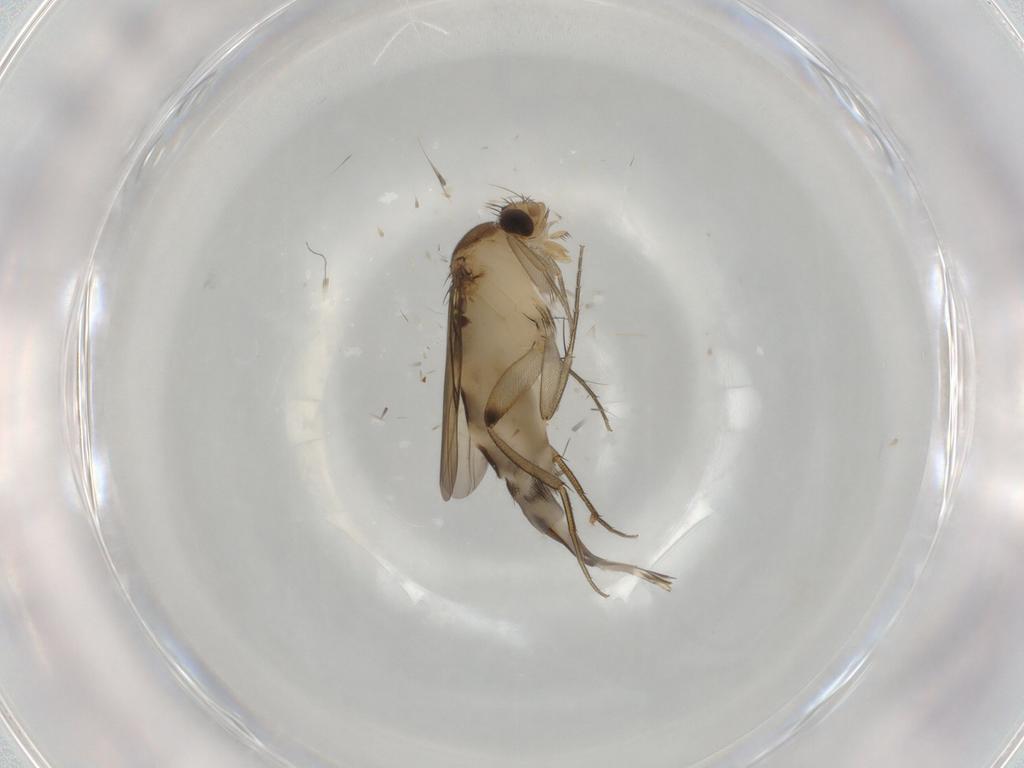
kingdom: Animalia
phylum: Arthropoda
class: Insecta
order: Diptera
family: Phoridae
